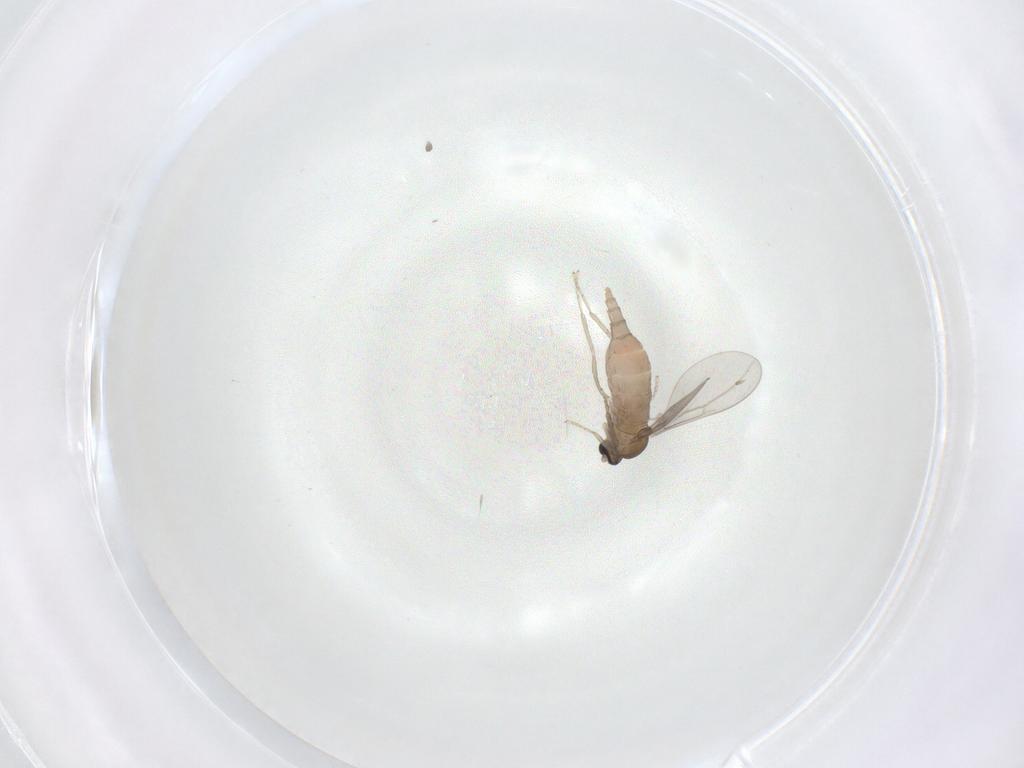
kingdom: Animalia
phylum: Arthropoda
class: Insecta
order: Diptera
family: Cecidomyiidae
